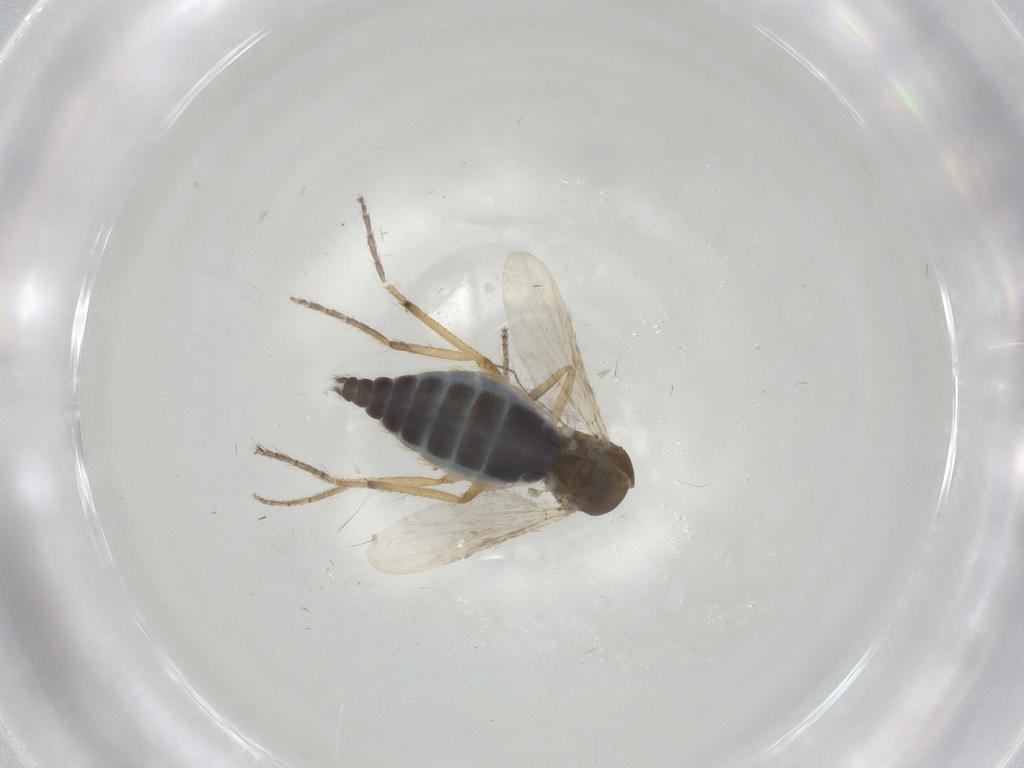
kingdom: Animalia
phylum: Arthropoda
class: Insecta
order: Diptera
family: Ceratopogonidae
